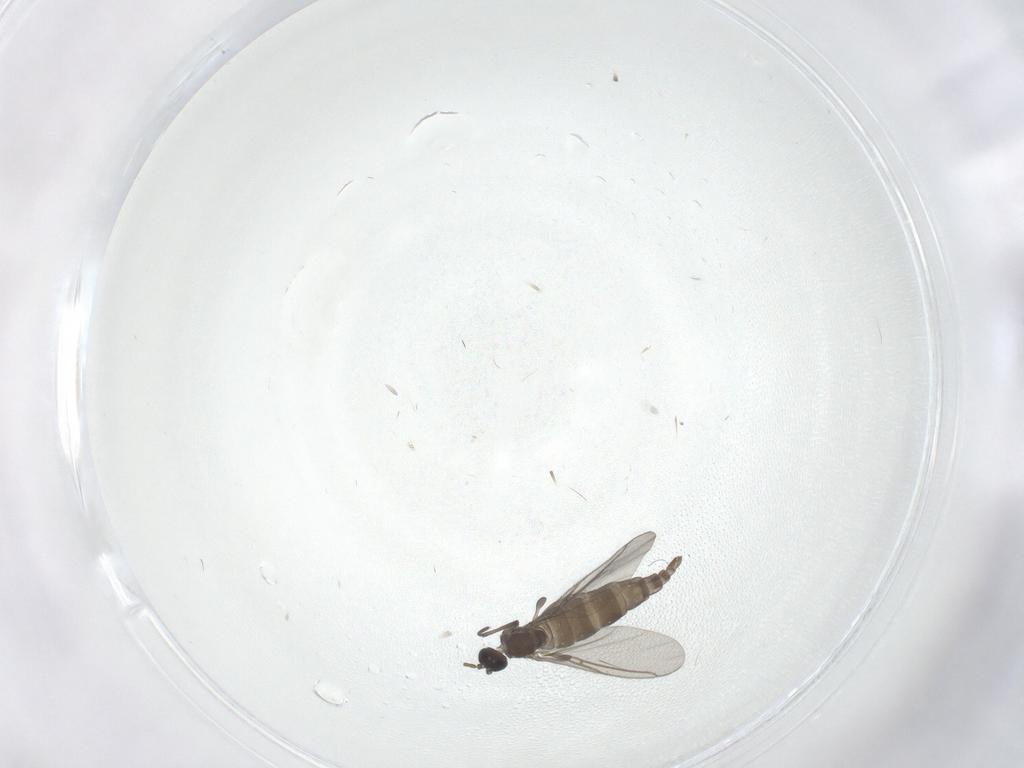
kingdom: Animalia
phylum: Arthropoda
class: Insecta
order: Diptera
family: Sciaridae
